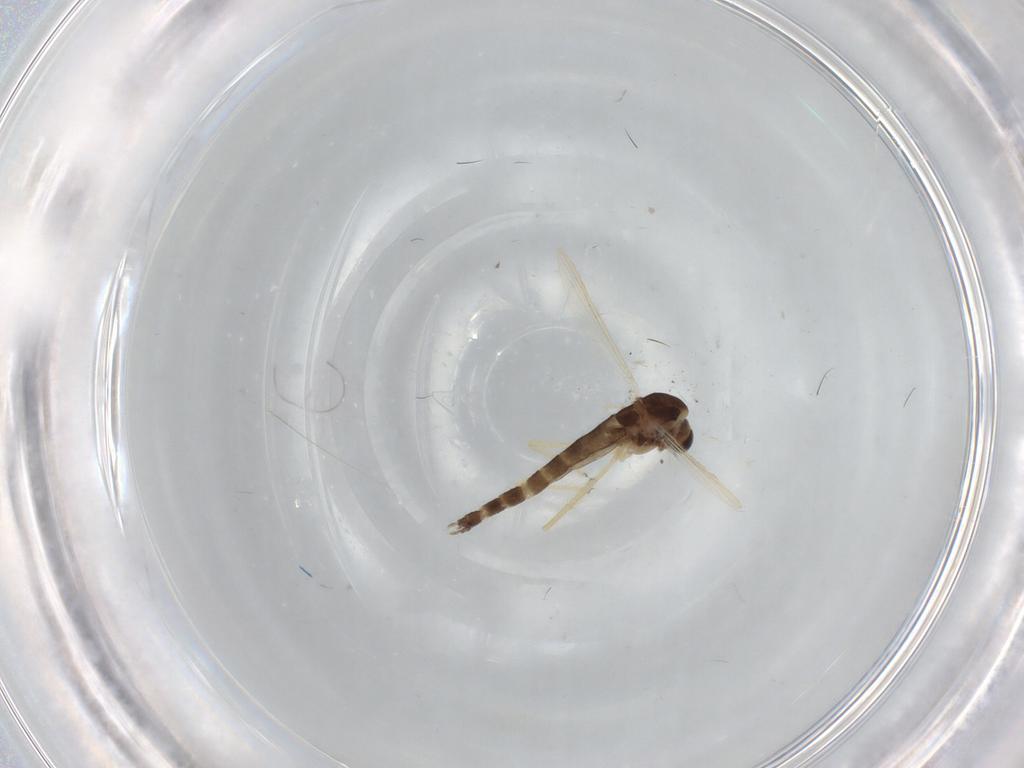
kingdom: Animalia
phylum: Arthropoda
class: Insecta
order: Diptera
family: Chironomidae
